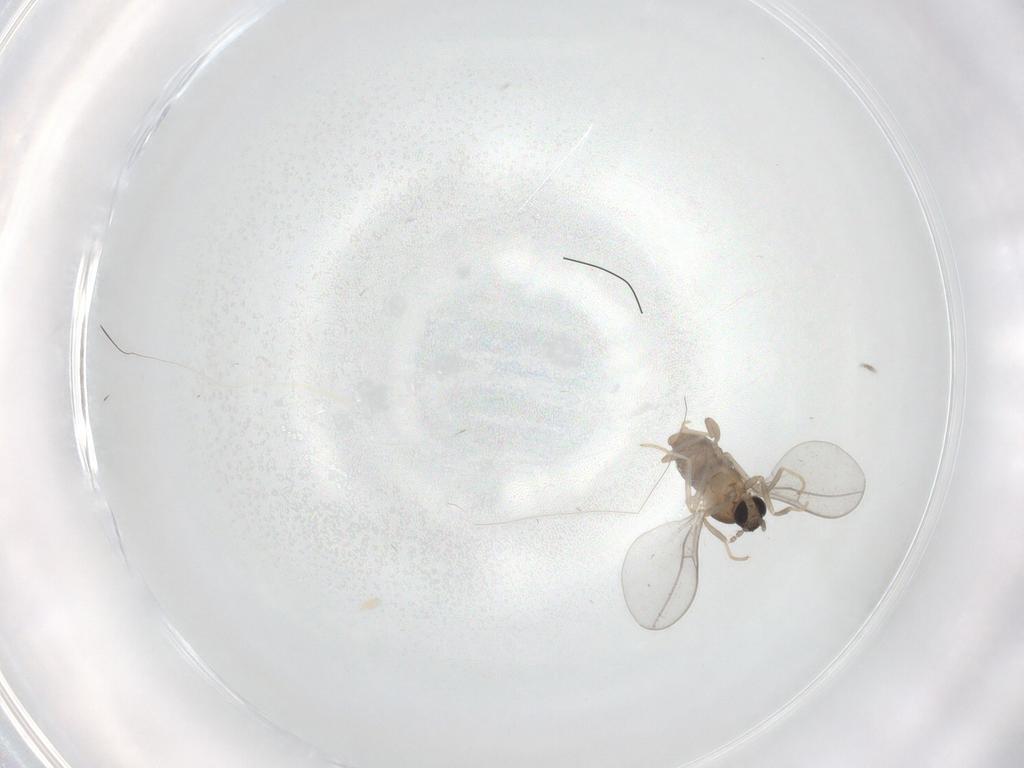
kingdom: Animalia
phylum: Arthropoda
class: Insecta
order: Diptera
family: Cecidomyiidae
